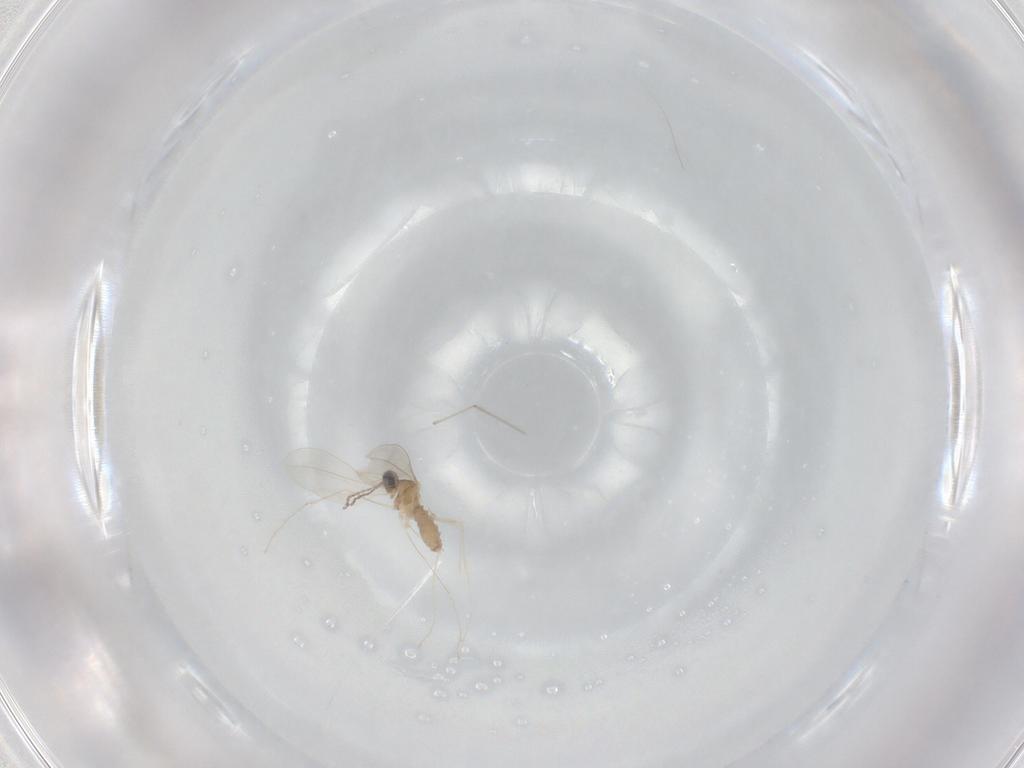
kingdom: Animalia
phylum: Arthropoda
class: Insecta
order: Diptera
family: Cecidomyiidae
